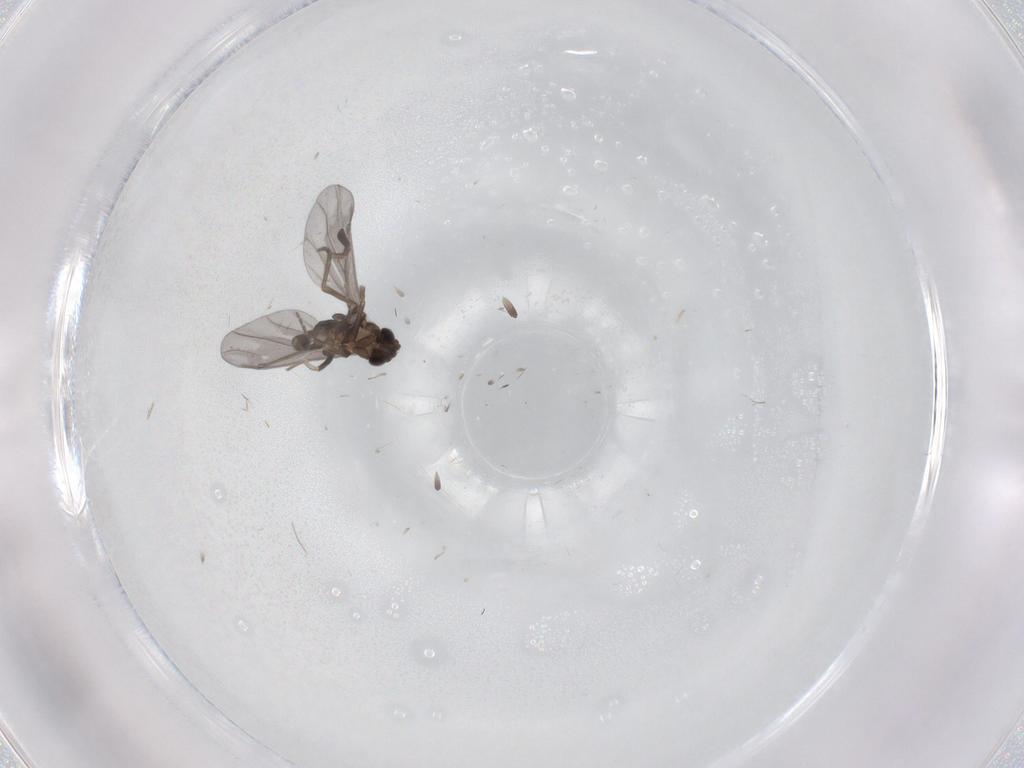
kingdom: Animalia
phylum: Arthropoda
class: Insecta
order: Diptera
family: Phoridae
